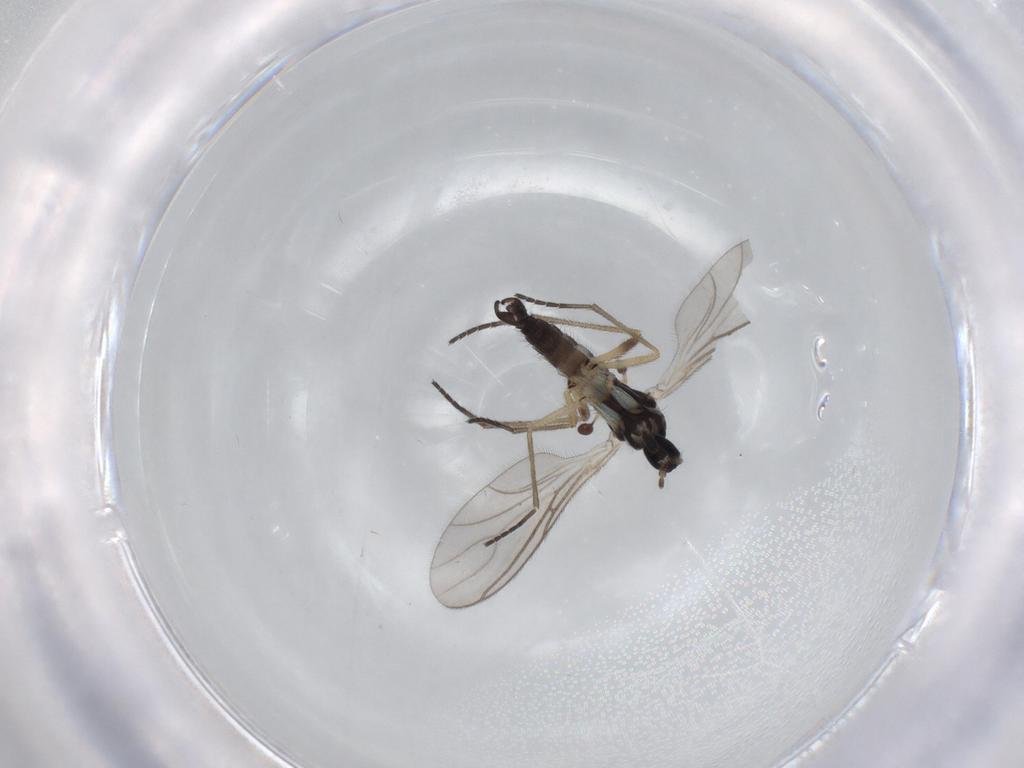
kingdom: Animalia
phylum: Arthropoda
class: Insecta
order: Diptera
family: Sciaridae
